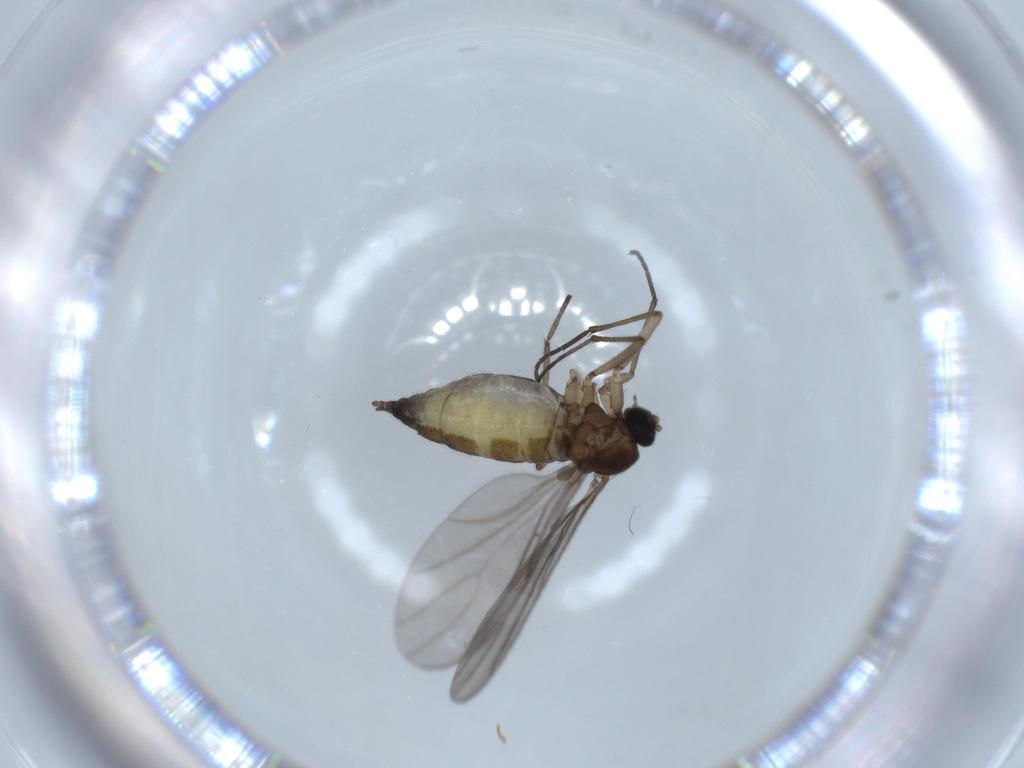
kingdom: Animalia
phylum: Arthropoda
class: Insecta
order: Diptera
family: Sciaridae
